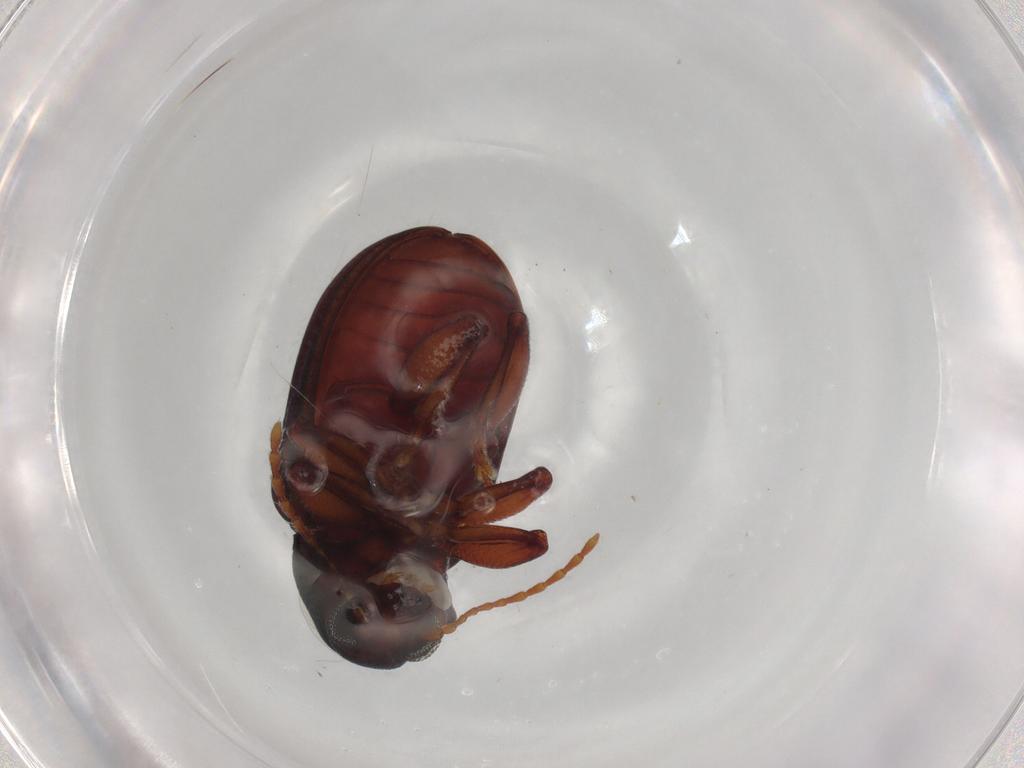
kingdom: Animalia
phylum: Arthropoda
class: Insecta
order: Coleoptera
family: Chrysomelidae
